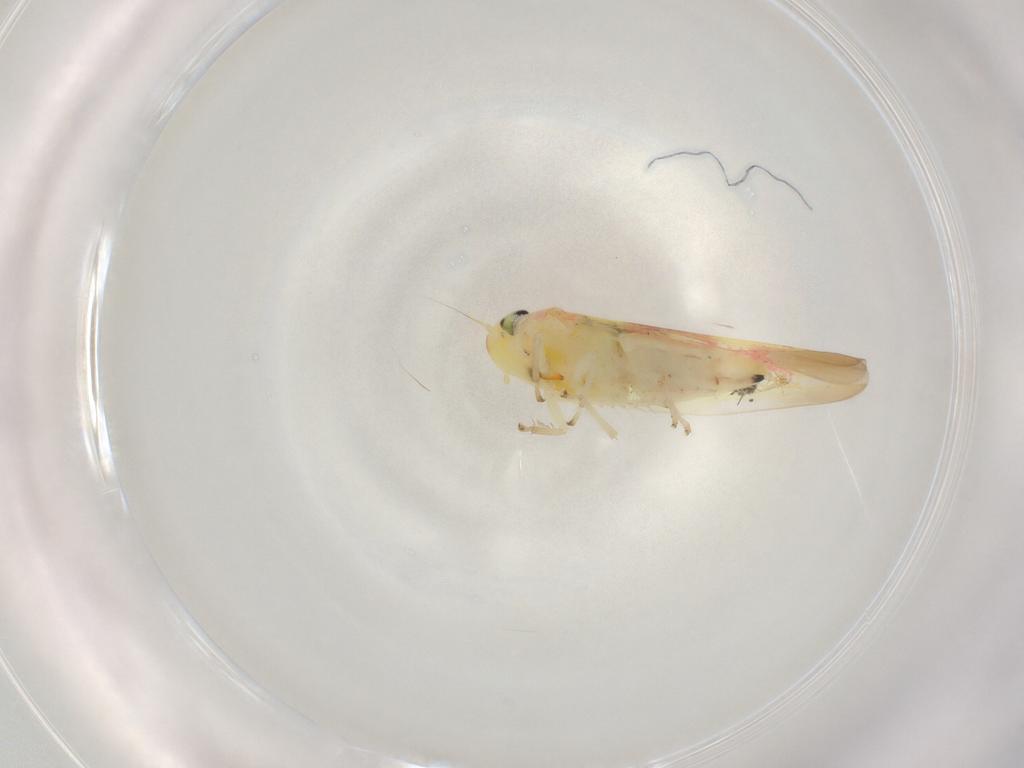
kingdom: Animalia
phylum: Arthropoda
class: Insecta
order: Hemiptera
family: Cicadellidae
